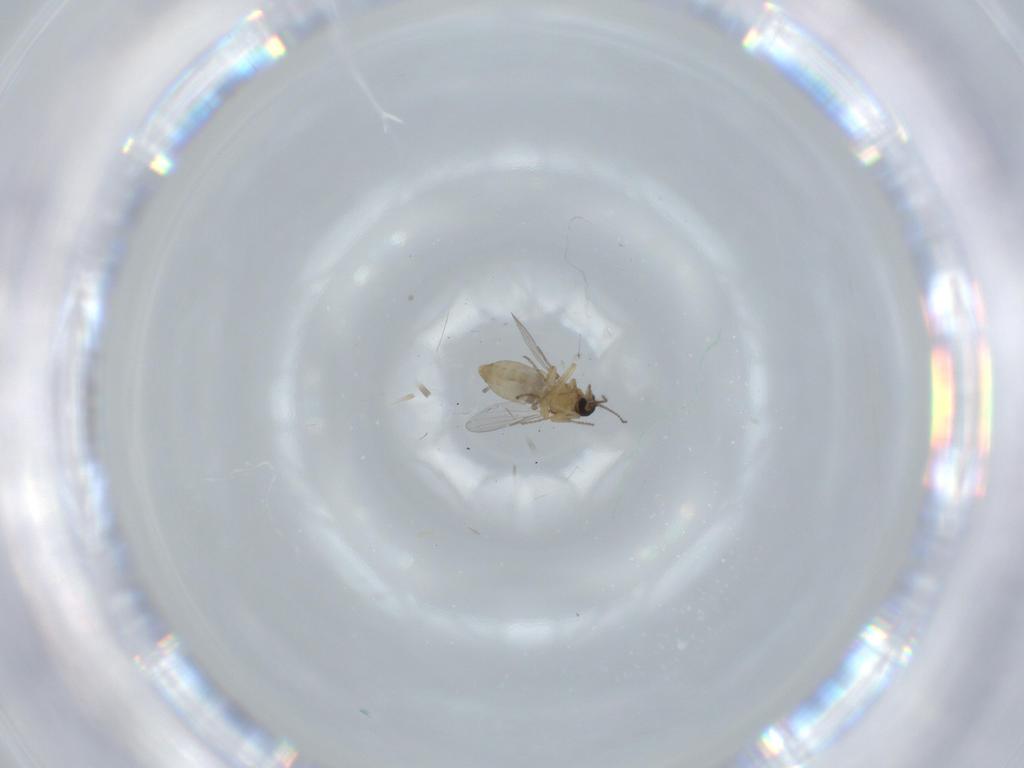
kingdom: Animalia
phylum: Arthropoda
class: Insecta
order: Diptera
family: Ceratopogonidae
